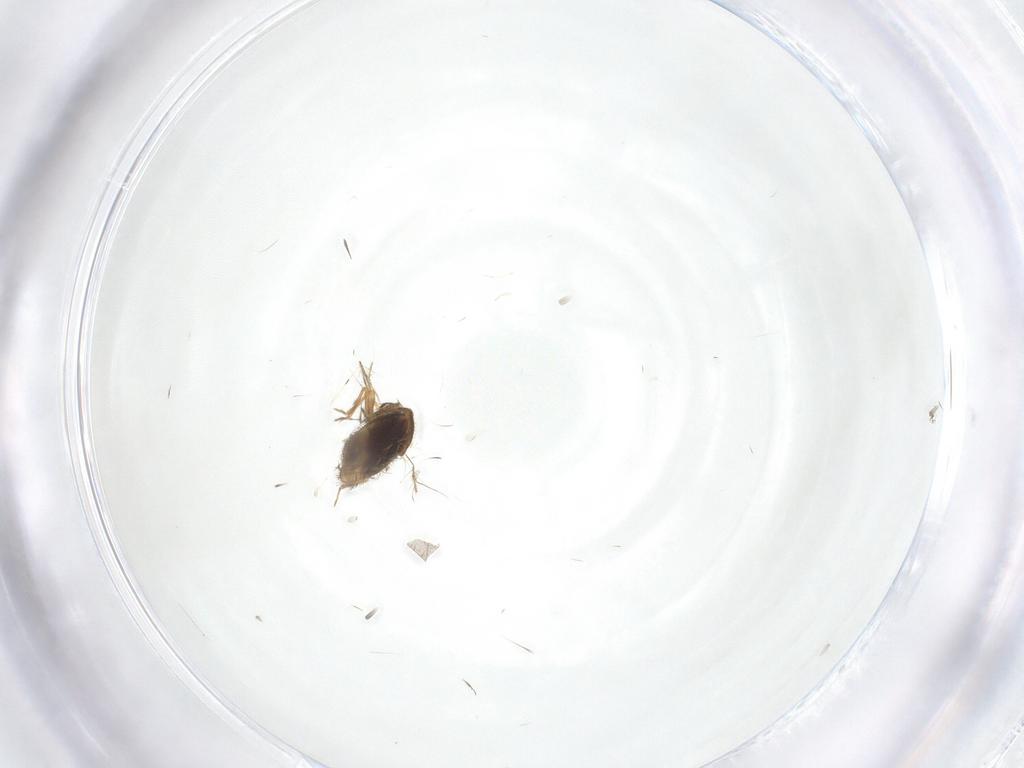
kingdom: Animalia
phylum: Arthropoda
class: Insecta
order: Hemiptera
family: Schizopteridae
